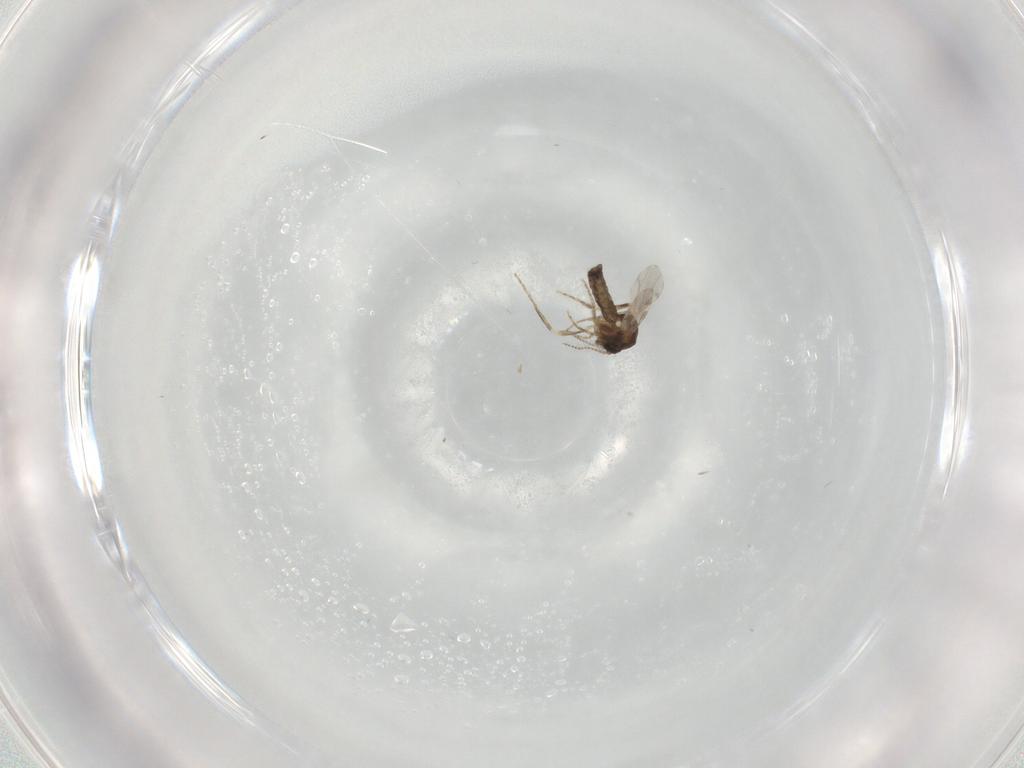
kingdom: Animalia
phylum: Arthropoda
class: Insecta
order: Diptera
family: Ceratopogonidae
